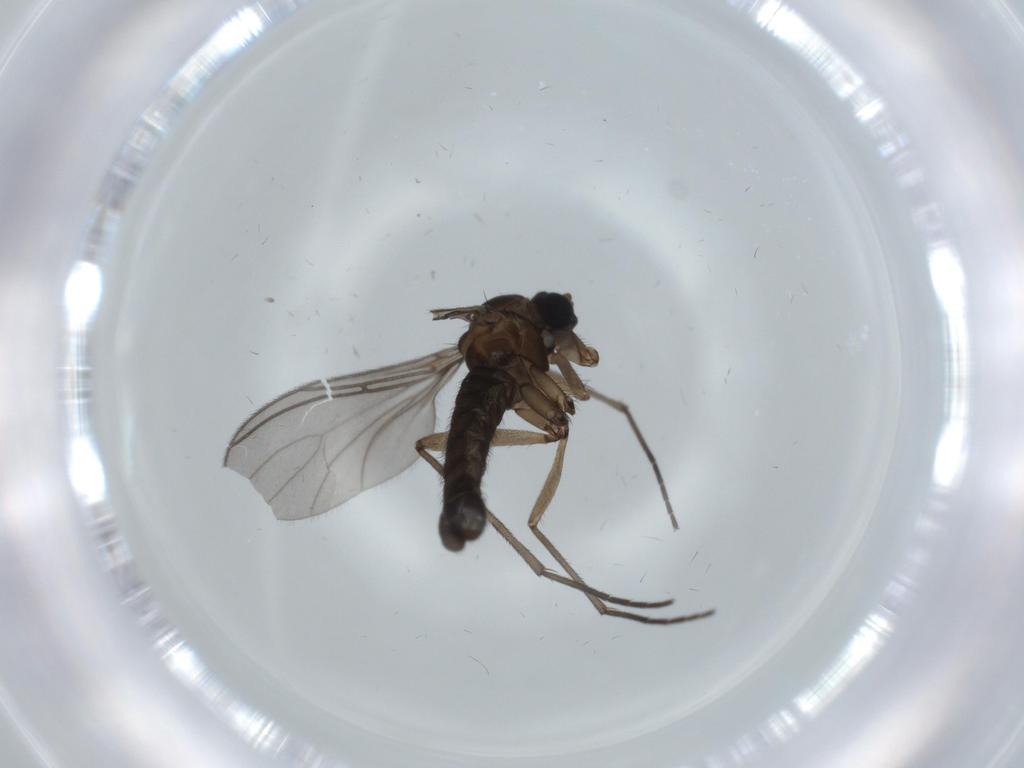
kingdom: Animalia
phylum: Arthropoda
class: Insecta
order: Diptera
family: Sciaridae
